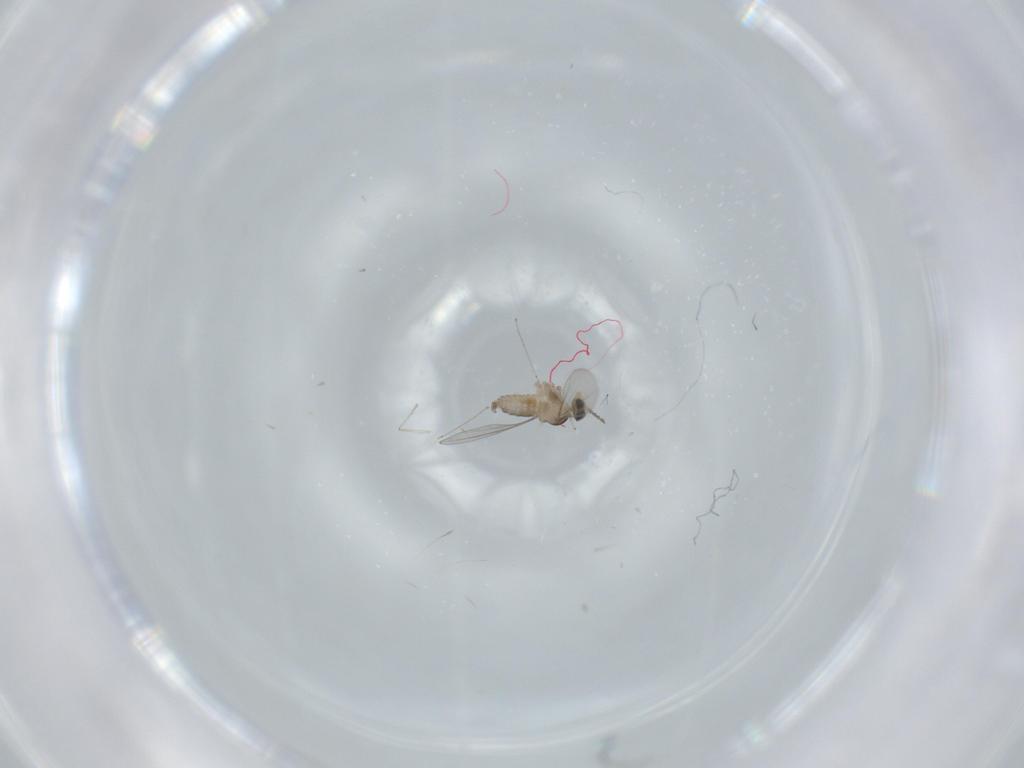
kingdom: Animalia
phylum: Arthropoda
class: Insecta
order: Diptera
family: Cecidomyiidae
